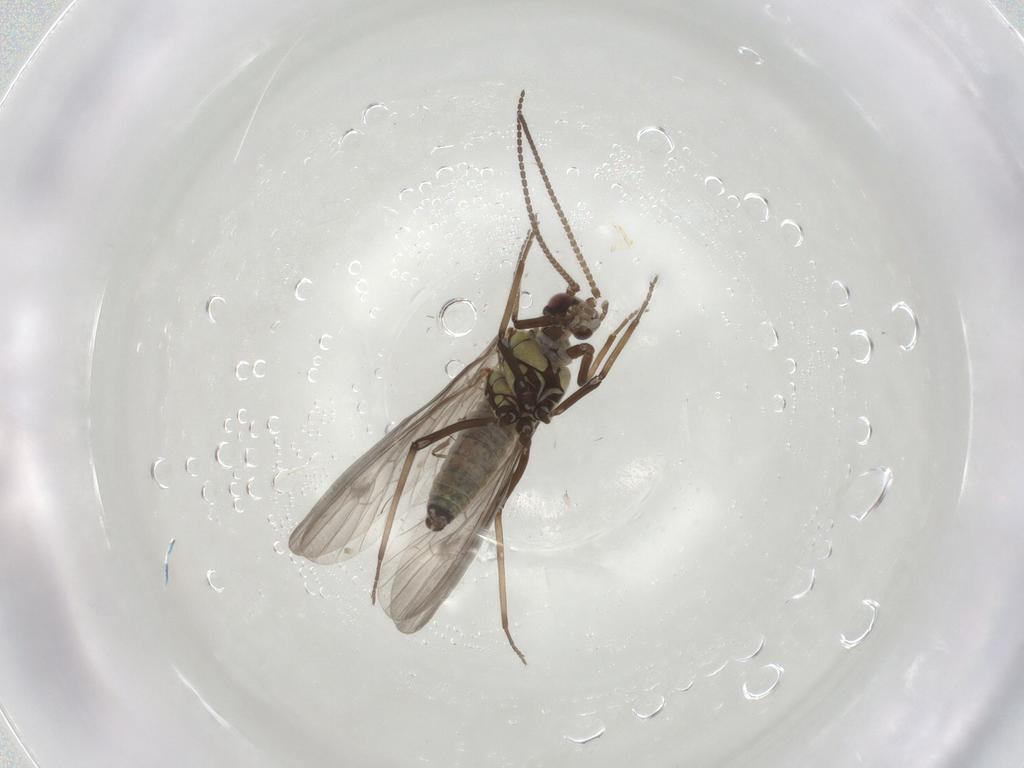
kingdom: Animalia
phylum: Arthropoda
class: Insecta
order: Neuroptera
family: Coniopterygidae
